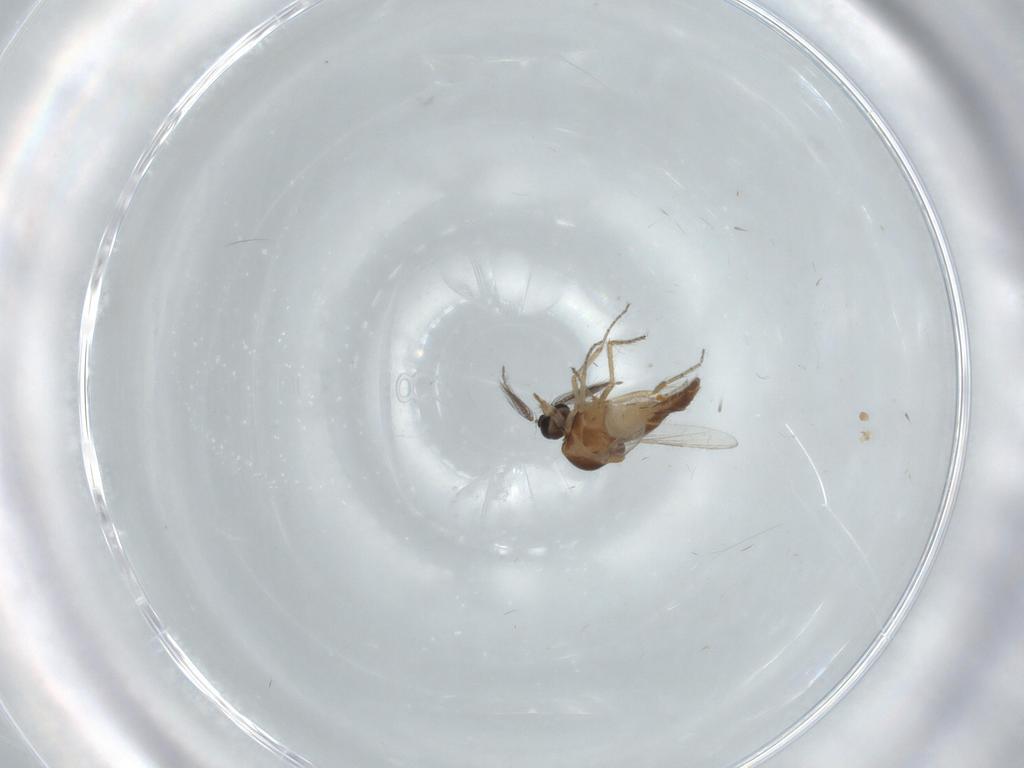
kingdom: Animalia
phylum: Arthropoda
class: Insecta
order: Diptera
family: Ceratopogonidae
